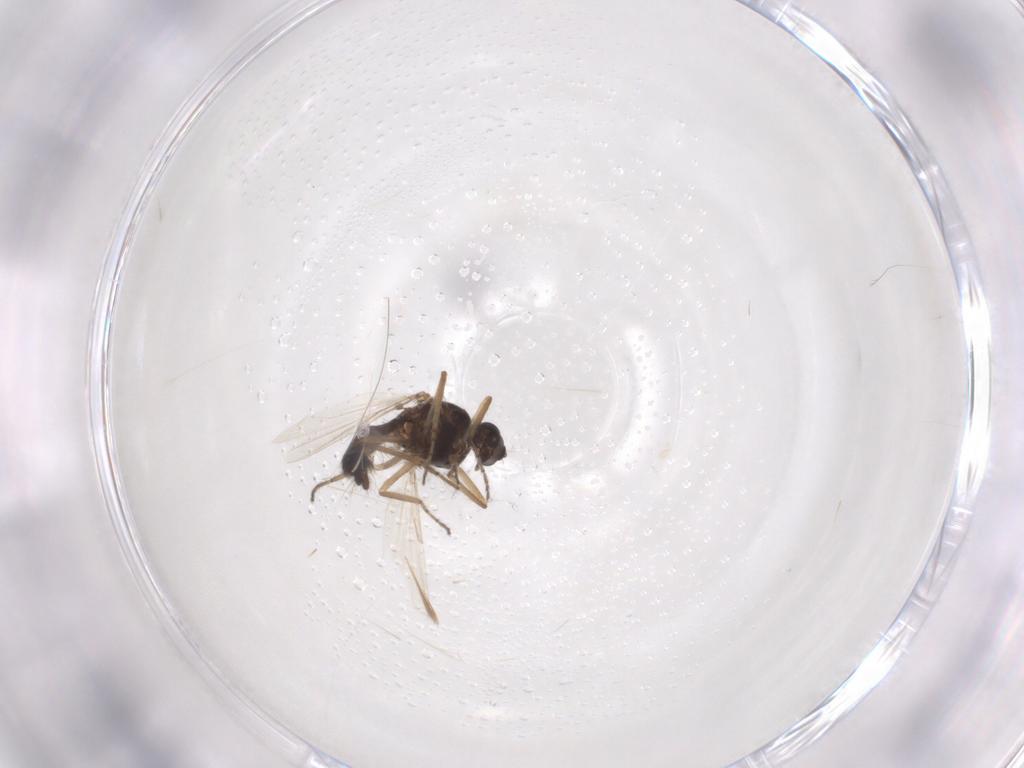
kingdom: Animalia
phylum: Arthropoda
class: Insecta
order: Diptera
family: Ceratopogonidae
